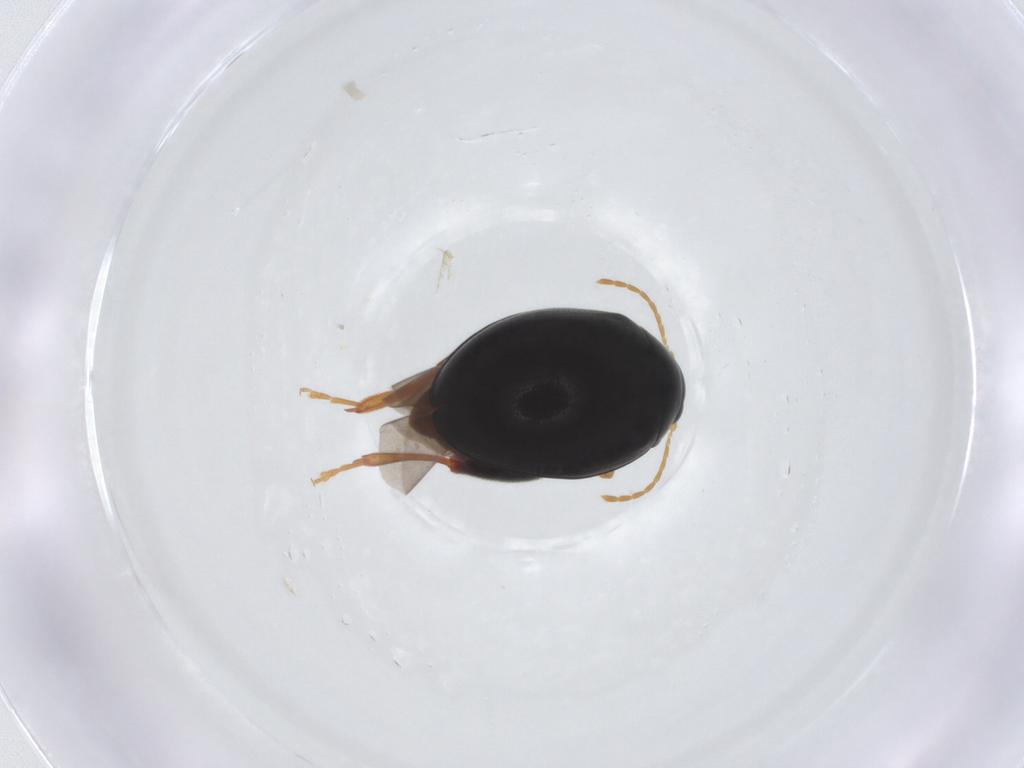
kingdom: Animalia
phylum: Arthropoda
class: Insecta
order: Coleoptera
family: Chrysomelidae
